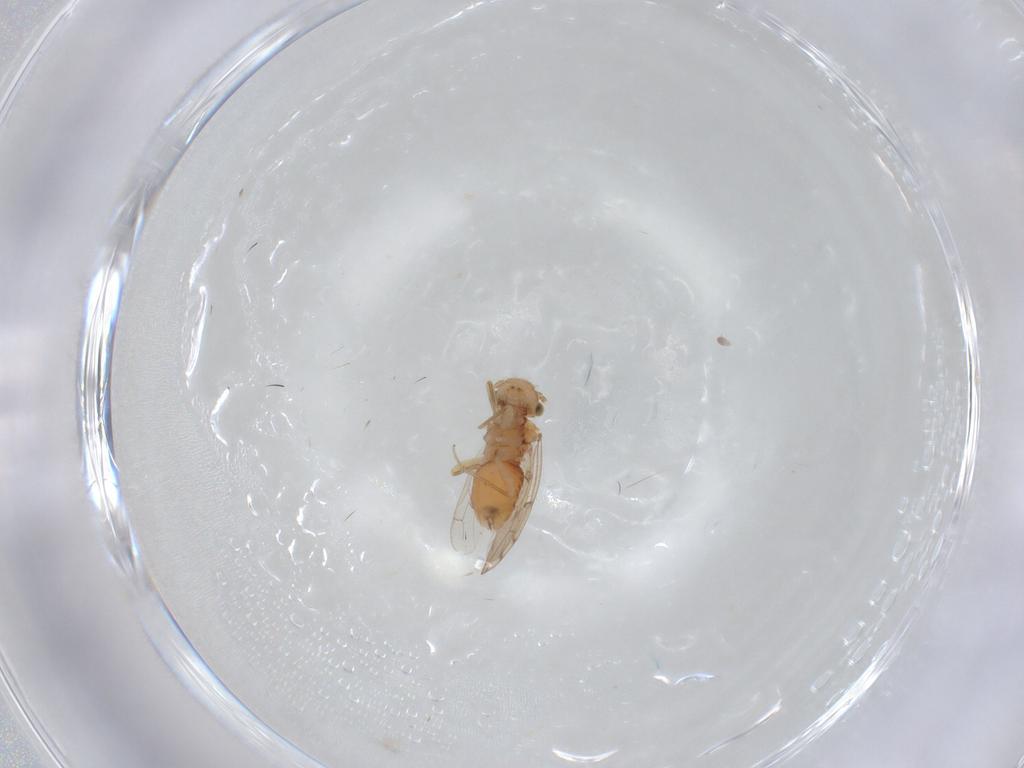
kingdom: Animalia
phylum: Arthropoda
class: Insecta
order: Psocodea
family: Ectopsocidae
